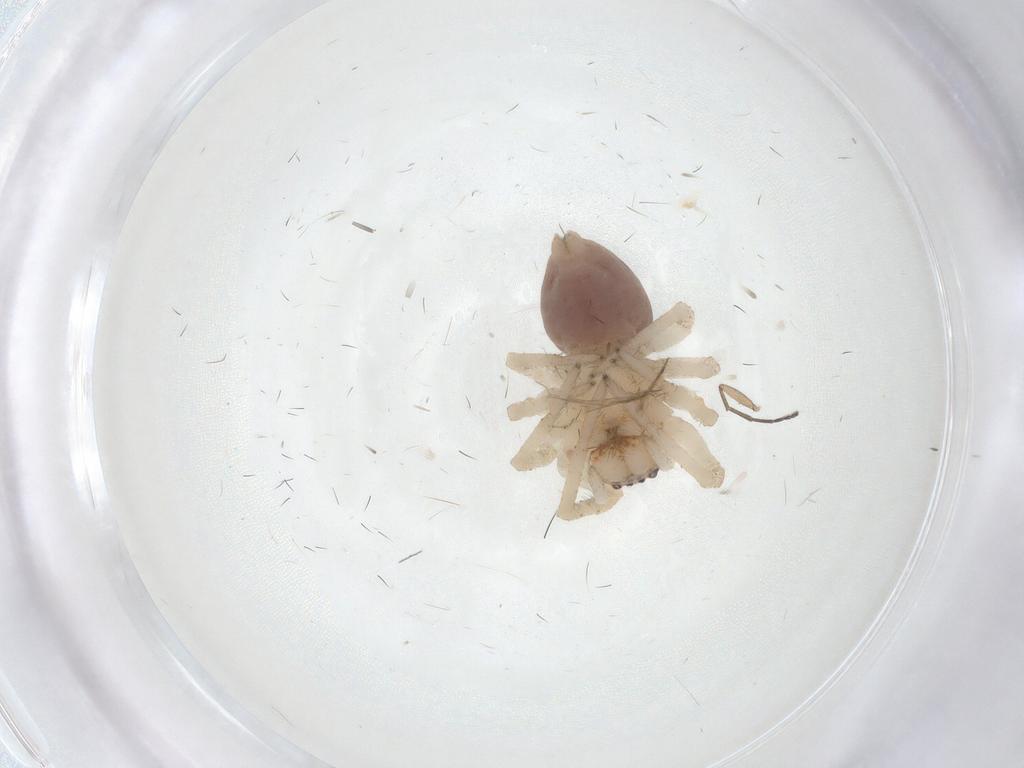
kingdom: Animalia
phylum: Arthropoda
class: Arachnida
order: Araneae
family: Dictynidae
